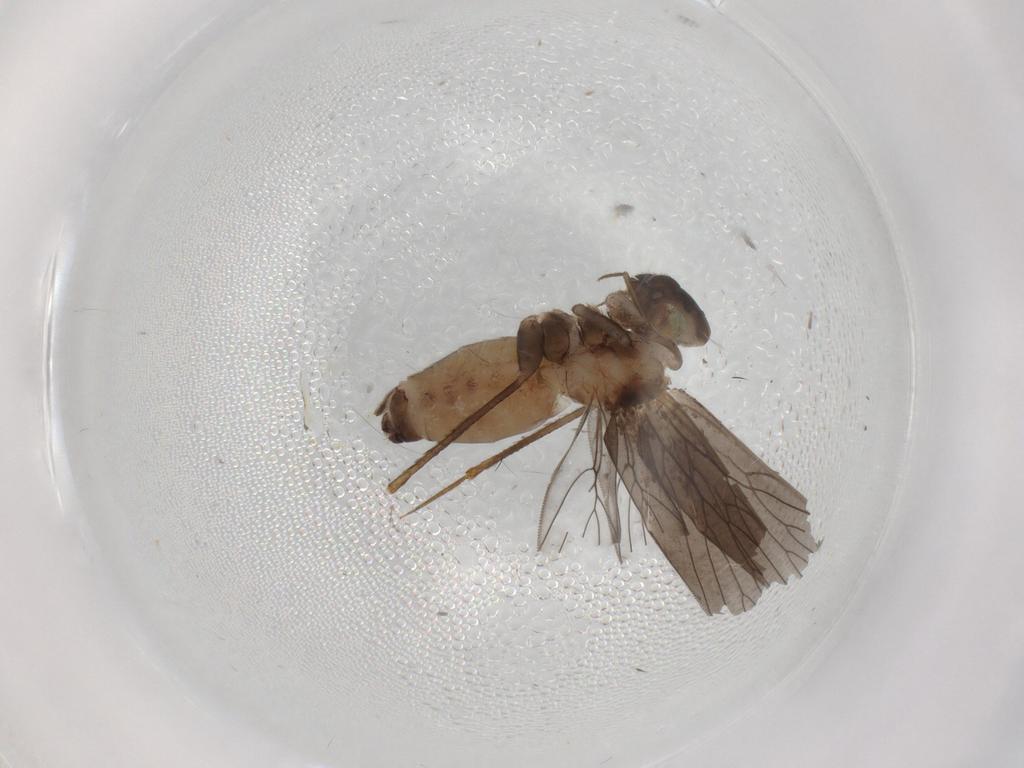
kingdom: Animalia
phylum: Arthropoda
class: Insecta
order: Psocodea
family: Lepidopsocidae
